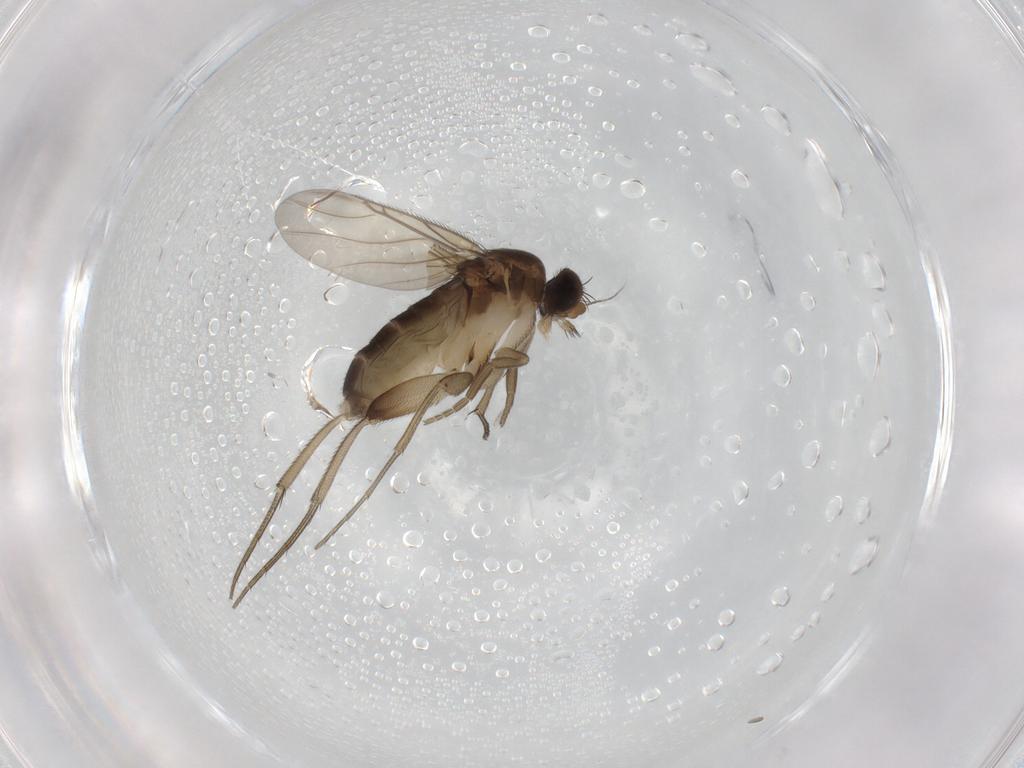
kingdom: Animalia
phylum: Arthropoda
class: Insecta
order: Diptera
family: Phoridae
